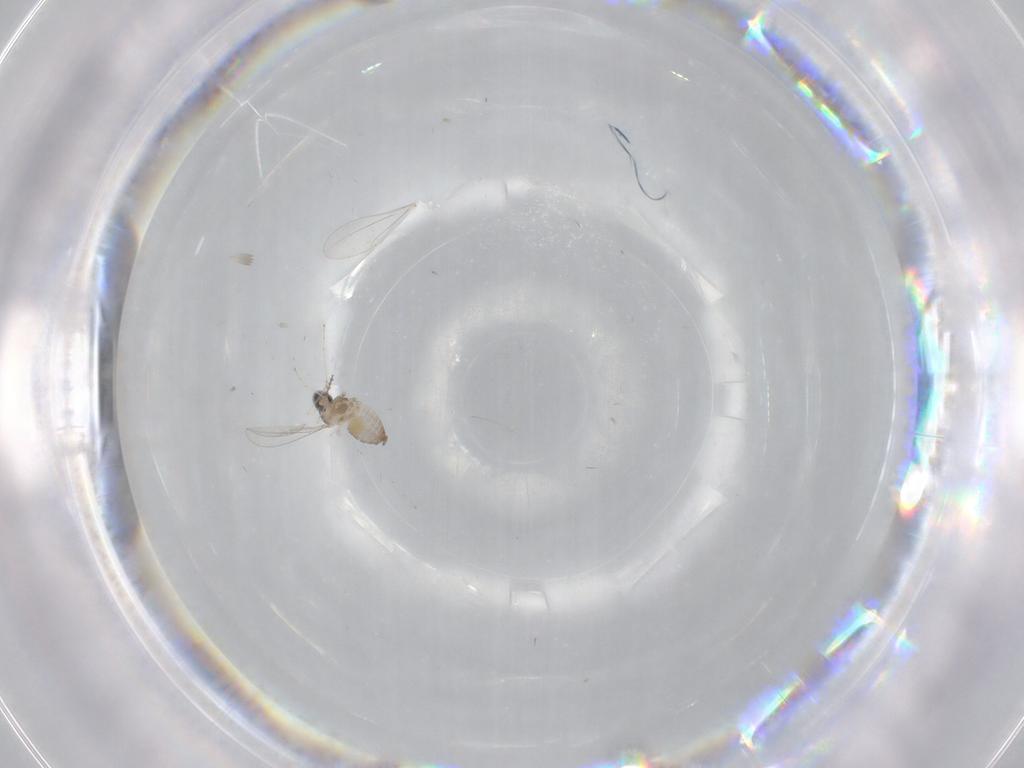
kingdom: Animalia
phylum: Arthropoda
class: Insecta
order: Diptera
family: Cecidomyiidae
